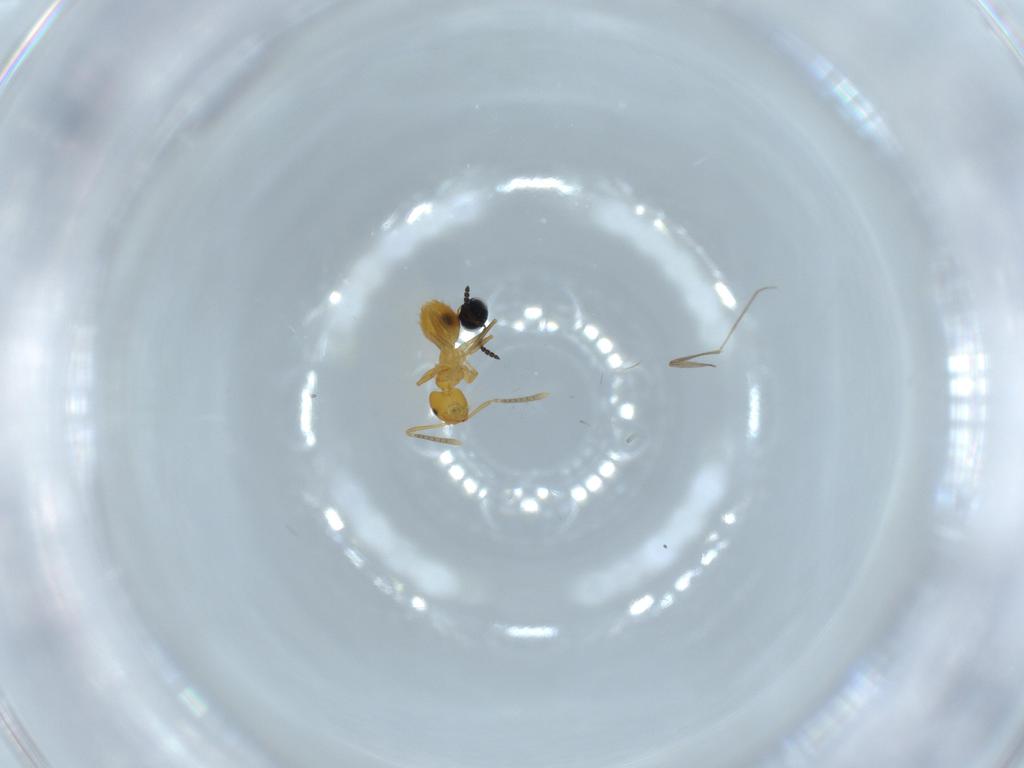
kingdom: Animalia
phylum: Arthropoda
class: Insecta
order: Hymenoptera
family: Scelionidae
